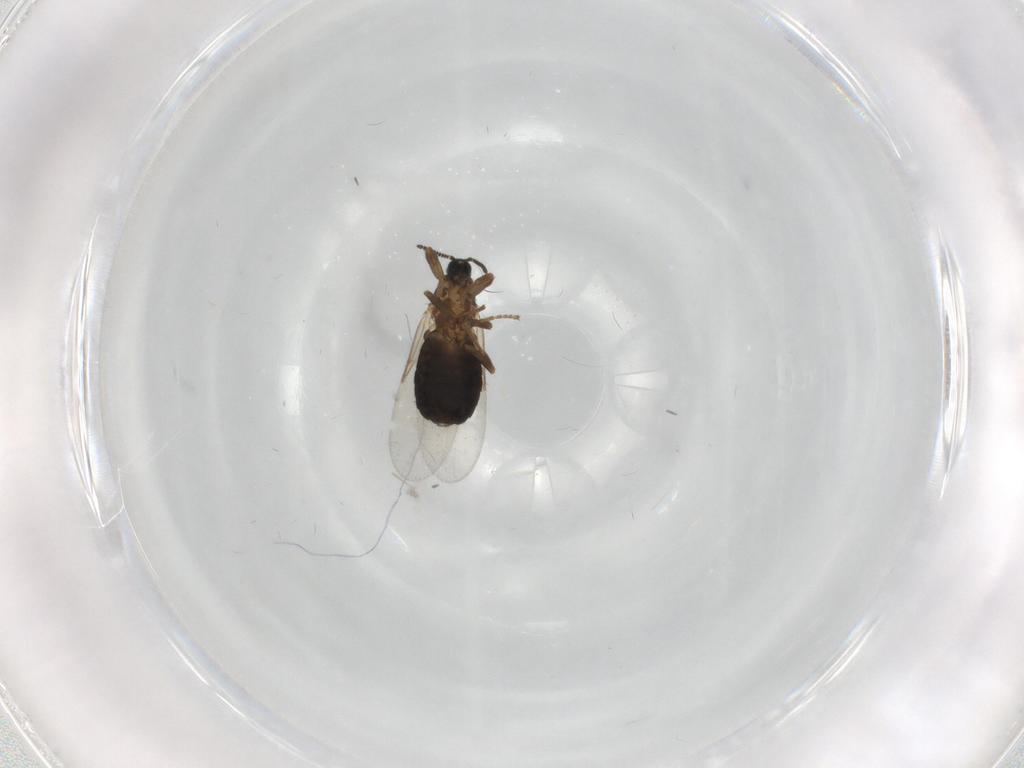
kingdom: Animalia
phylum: Arthropoda
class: Insecta
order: Diptera
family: Scatopsidae
